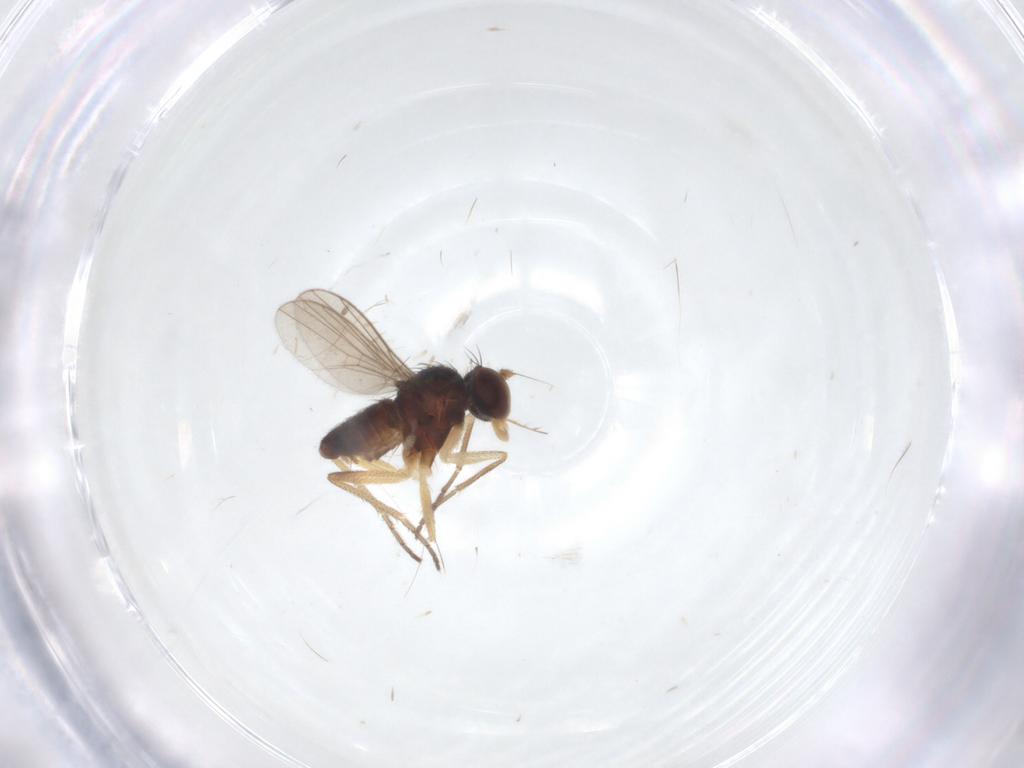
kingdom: Animalia
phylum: Arthropoda
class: Insecta
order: Diptera
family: Dolichopodidae
